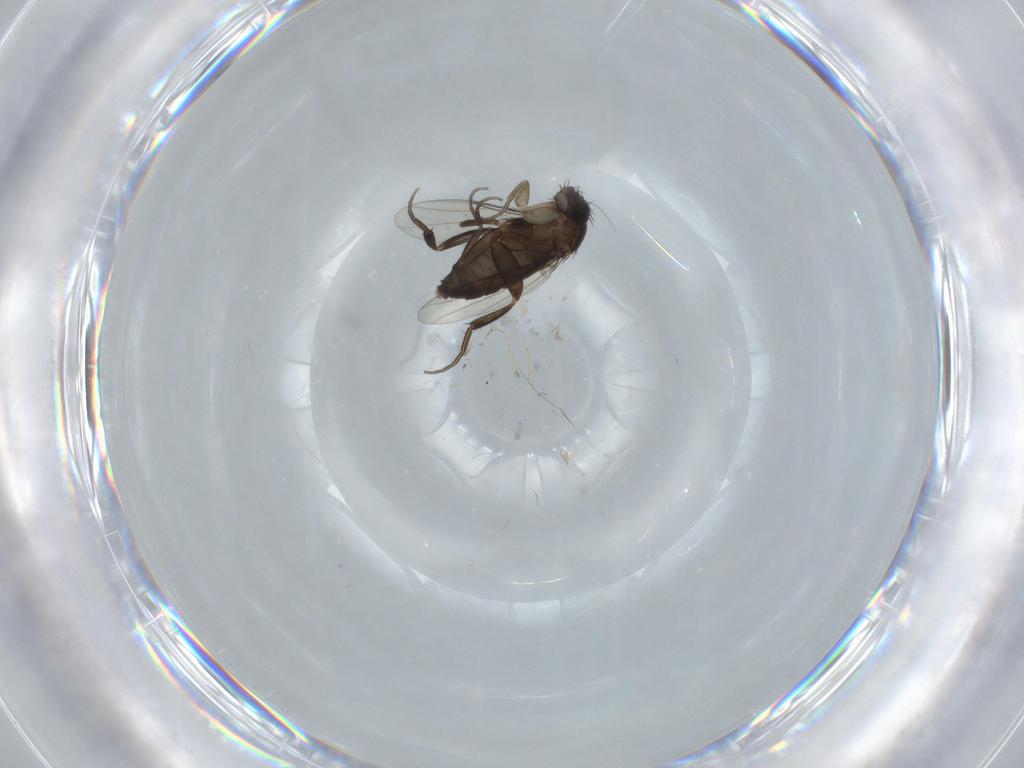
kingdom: Animalia
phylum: Arthropoda
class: Insecta
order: Diptera
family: Phoridae
